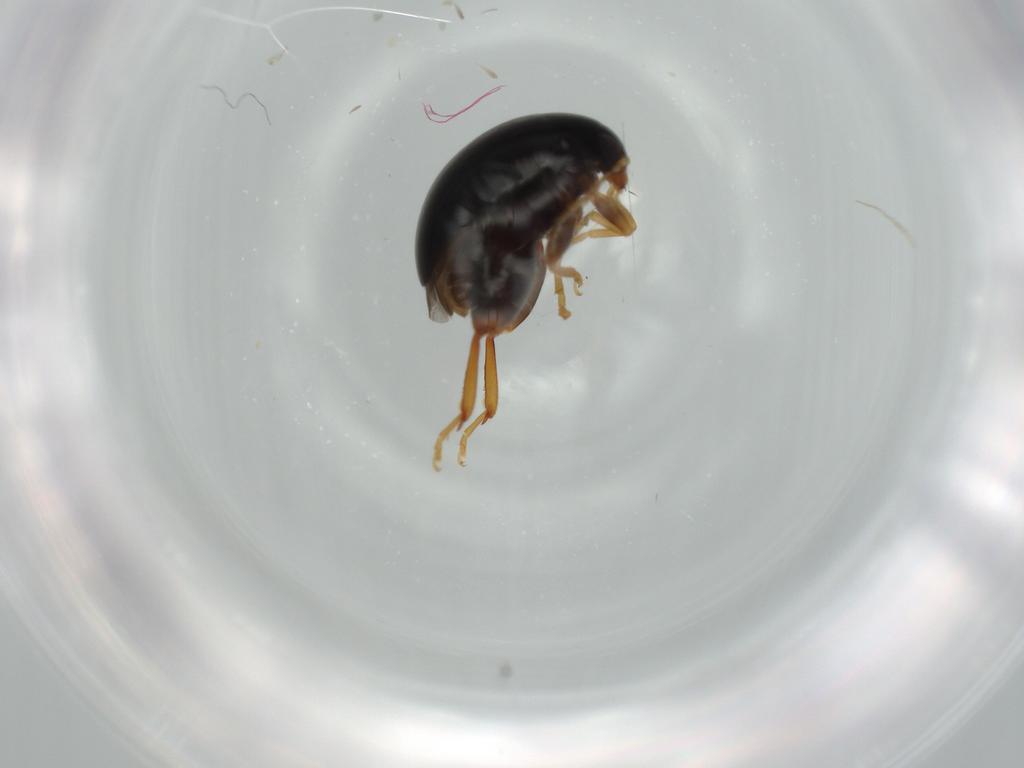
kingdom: Animalia
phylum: Arthropoda
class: Insecta
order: Coleoptera
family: Chrysomelidae
